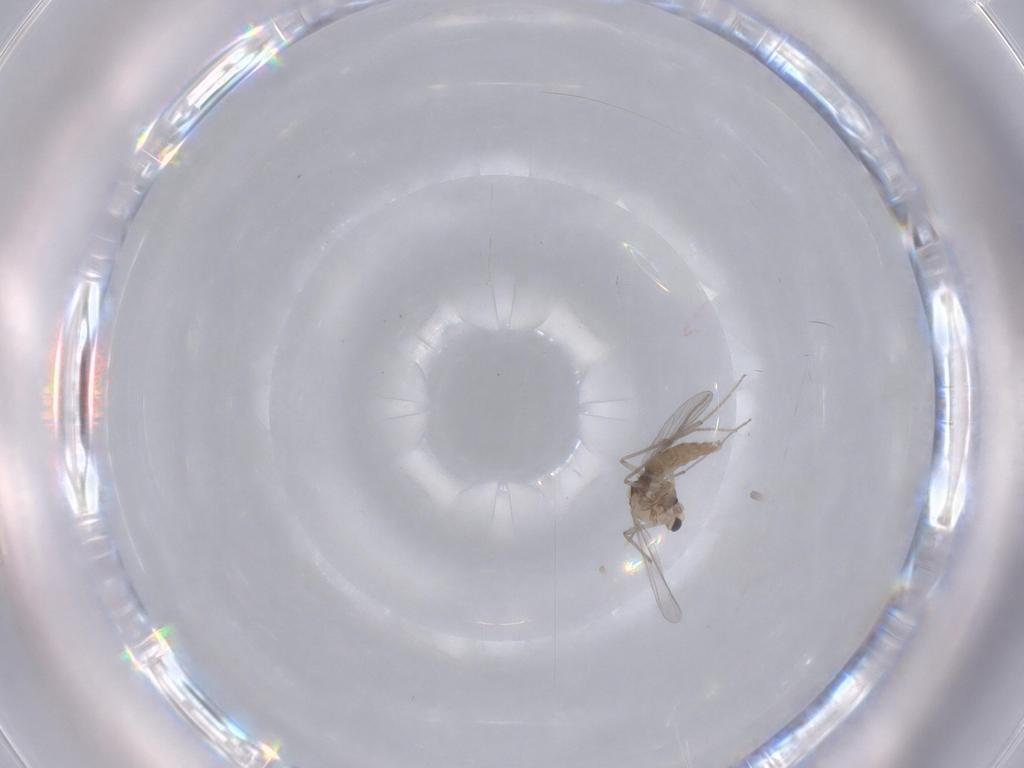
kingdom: Animalia
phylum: Arthropoda
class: Insecta
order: Diptera
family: Chironomidae
